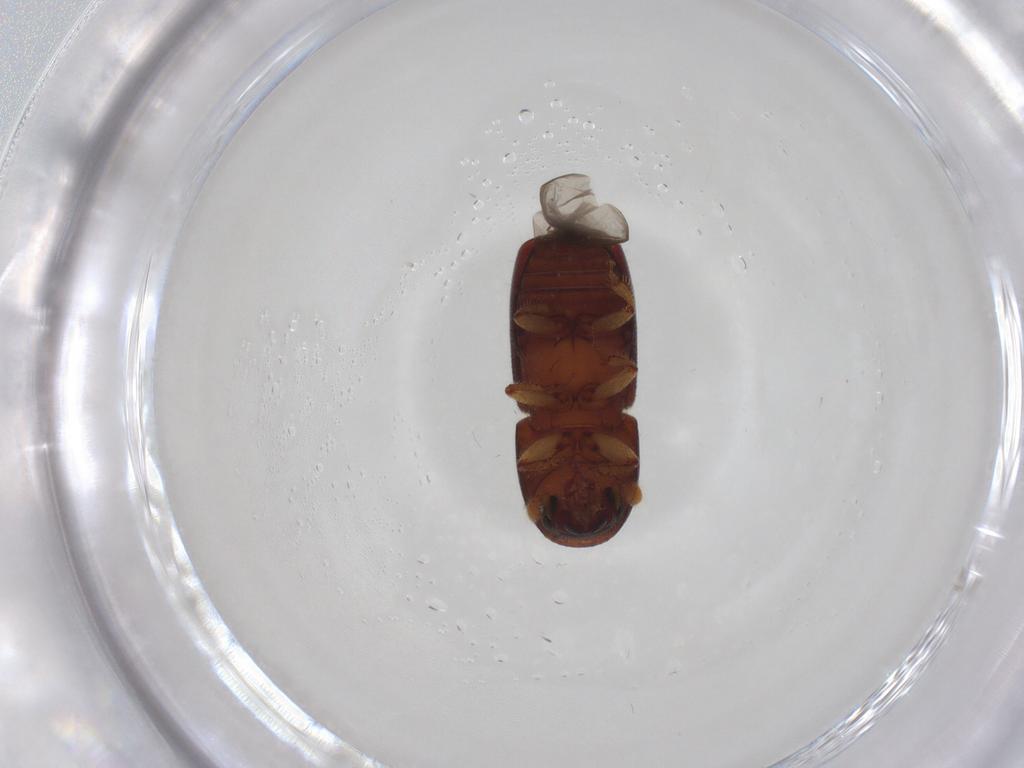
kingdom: Animalia
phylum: Arthropoda
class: Insecta
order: Coleoptera
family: Curculionidae
